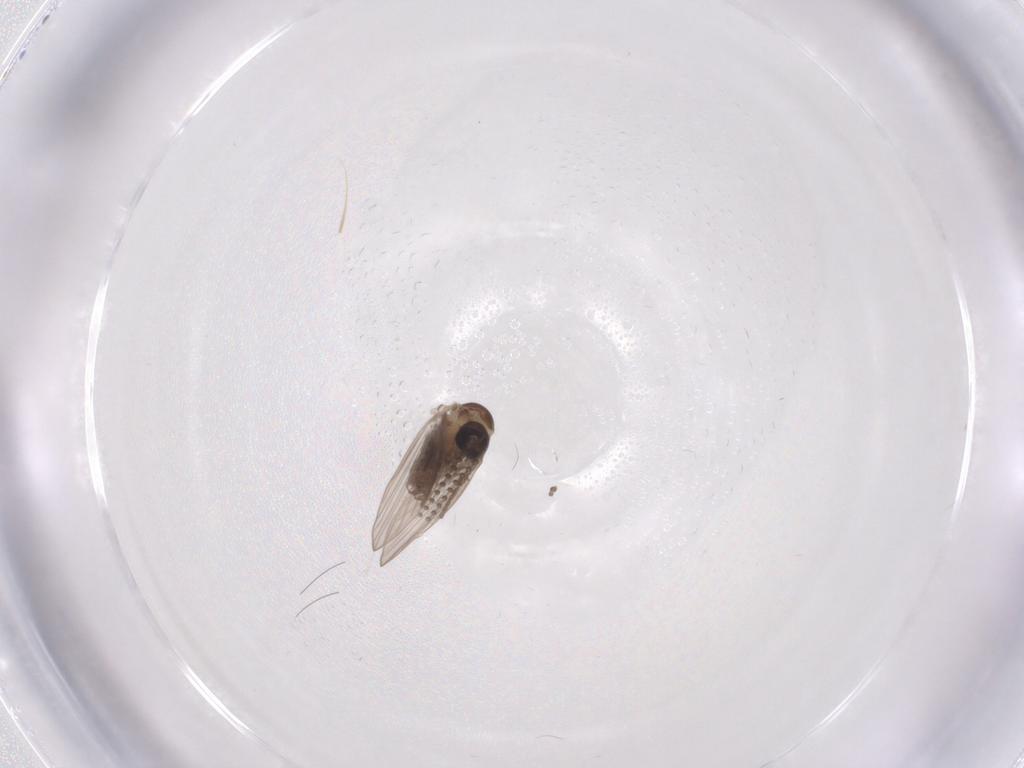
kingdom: Animalia
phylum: Arthropoda
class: Insecta
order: Diptera
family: Psychodidae
